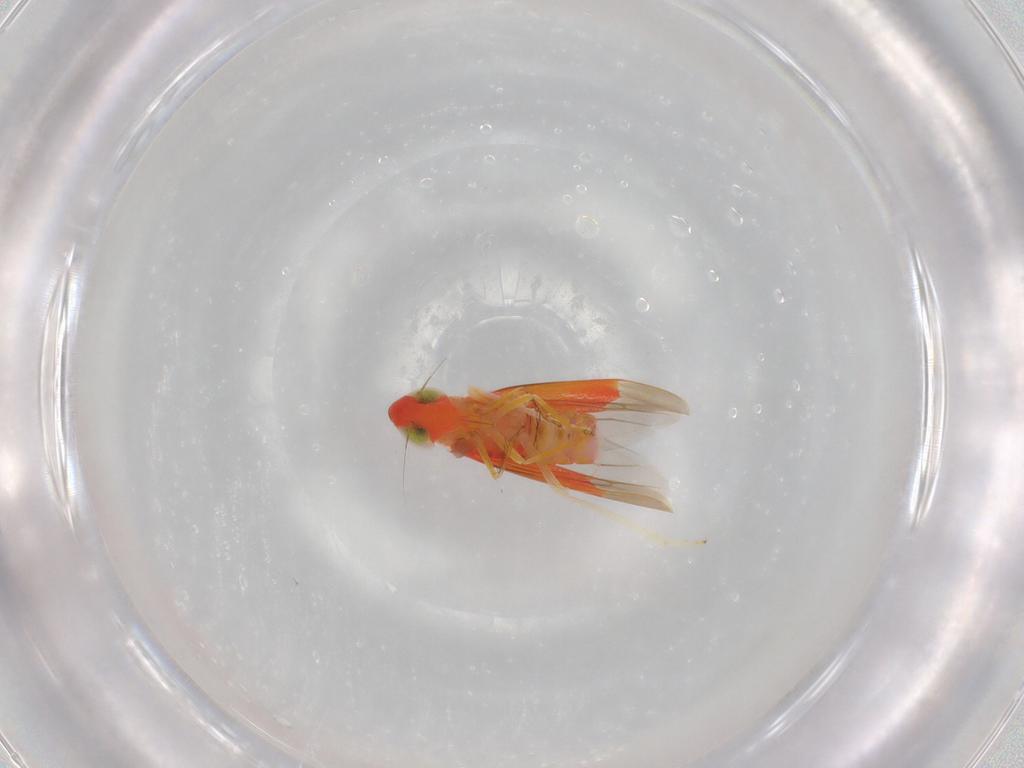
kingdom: Animalia
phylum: Arthropoda
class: Insecta
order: Hemiptera
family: Cicadellidae
